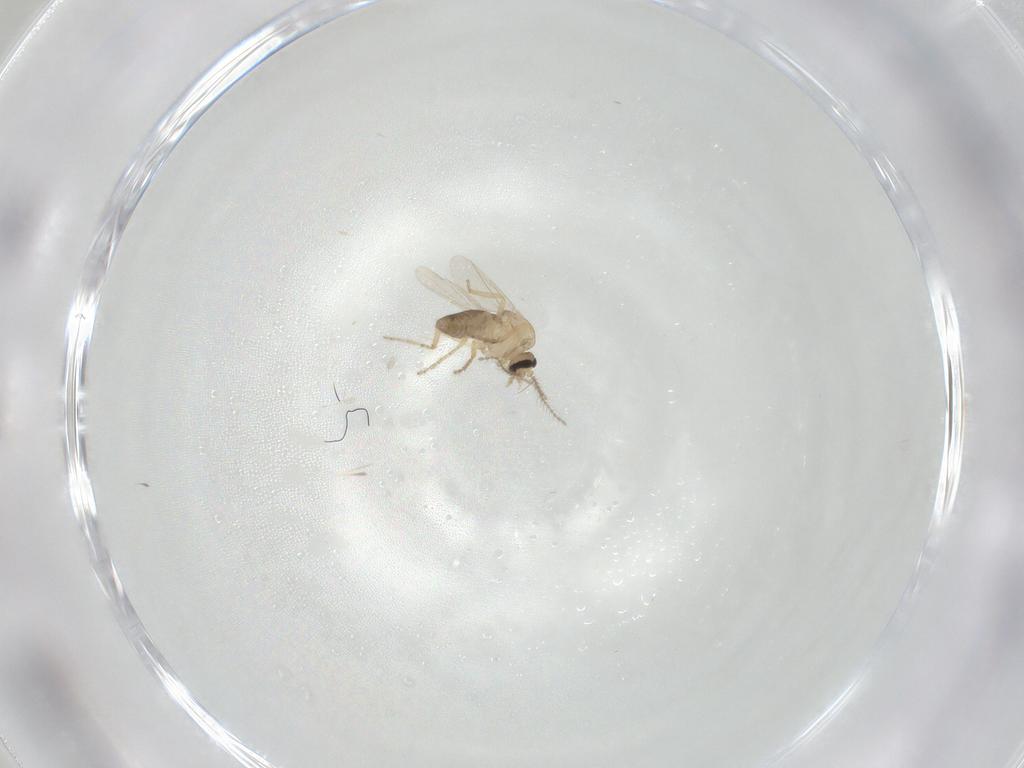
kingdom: Animalia
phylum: Arthropoda
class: Insecta
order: Diptera
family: Ceratopogonidae
